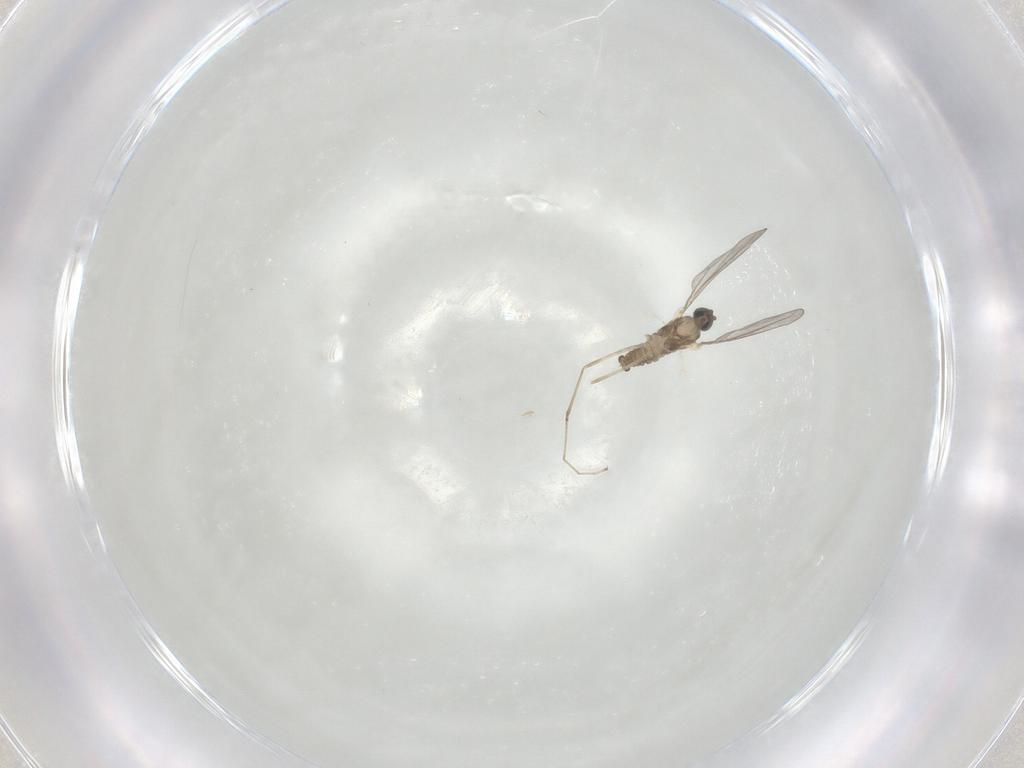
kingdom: Animalia
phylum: Arthropoda
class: Insecta
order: Diptera
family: Cecidomyiidae
